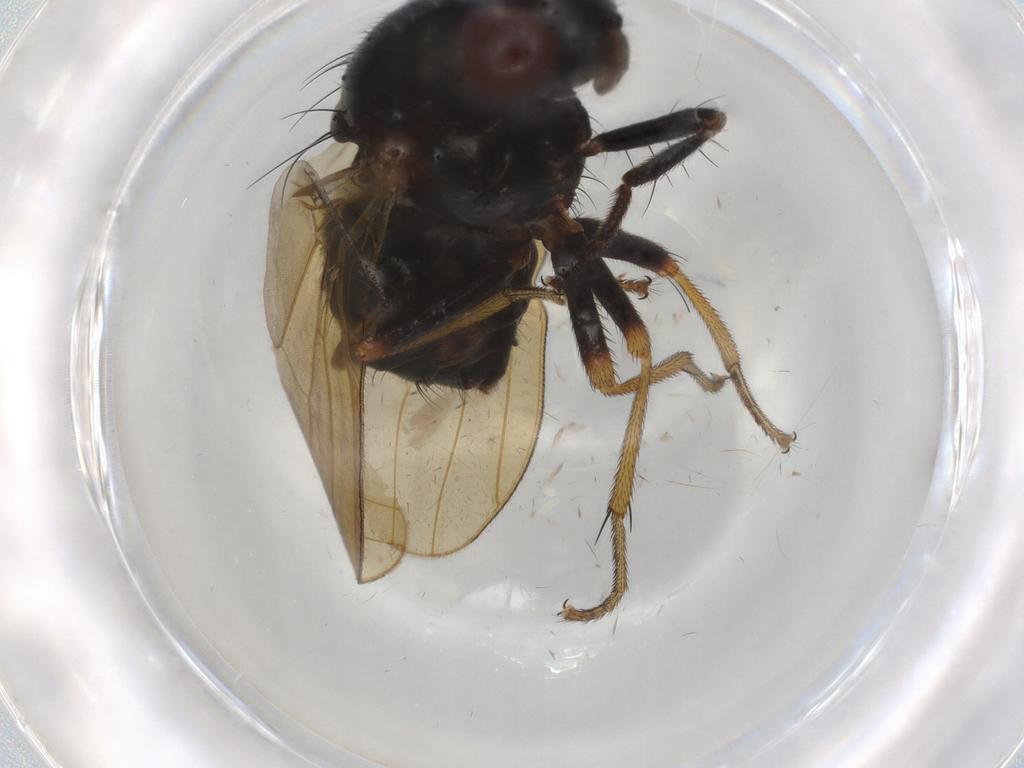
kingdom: Animalia
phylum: Arthropoda
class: Insecta
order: Diptera
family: Sciaridae
